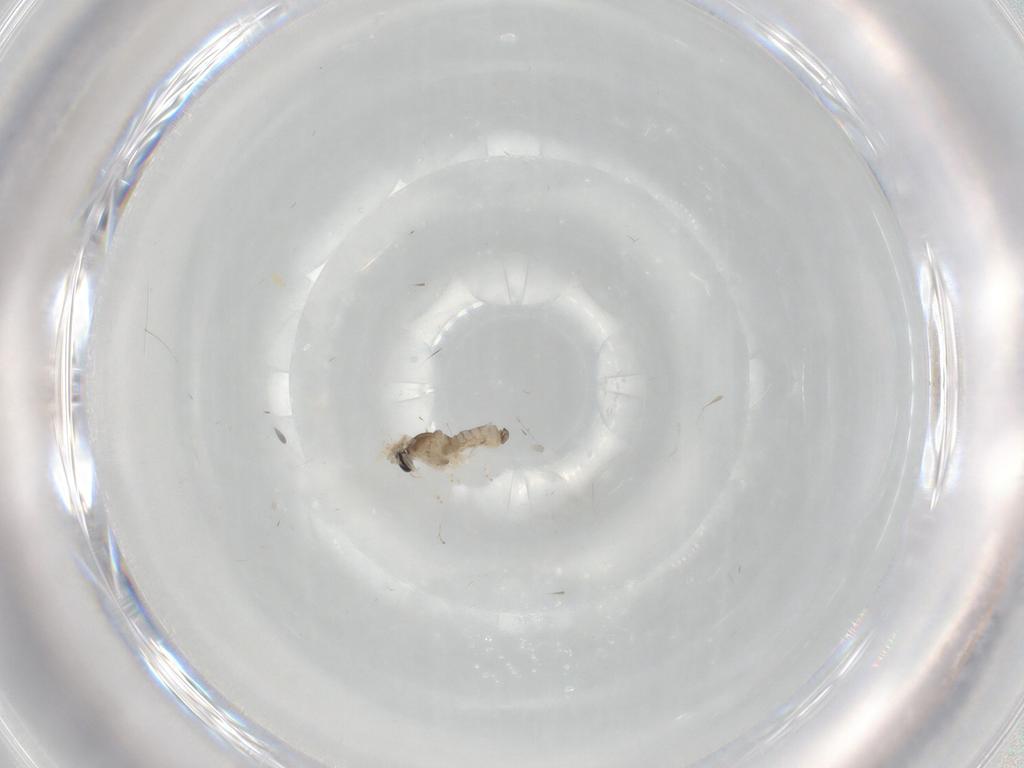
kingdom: Animalia
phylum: Arthropoda
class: Insecta
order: Diptera
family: Cecidomyiidae
